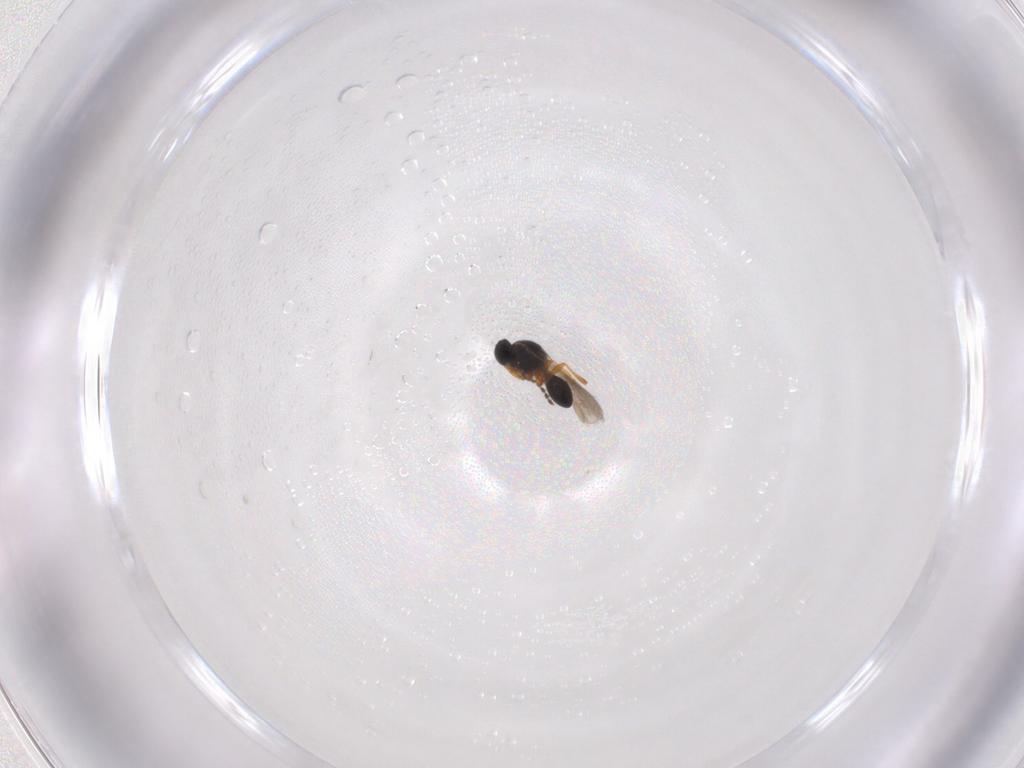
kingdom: Animalia
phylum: Arthropoda
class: Insecta
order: Hymenoptera
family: Platygastridae
